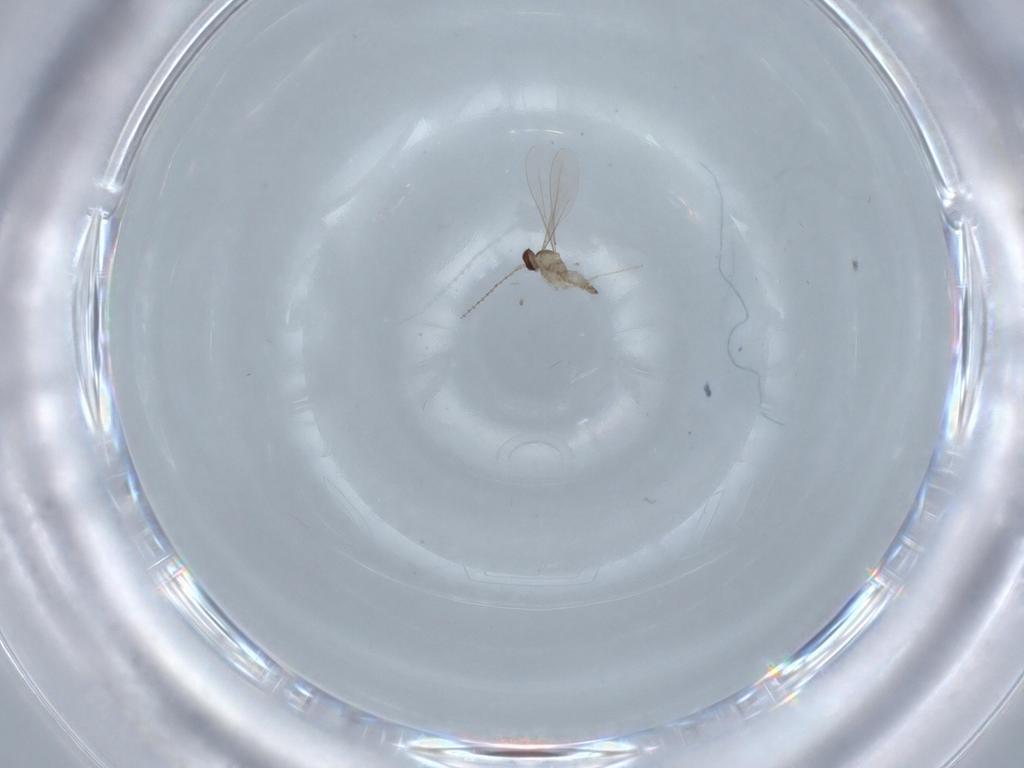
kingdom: Animalia
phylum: Arthropoda
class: Insecta
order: Diptera
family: Cecidomyiidae
